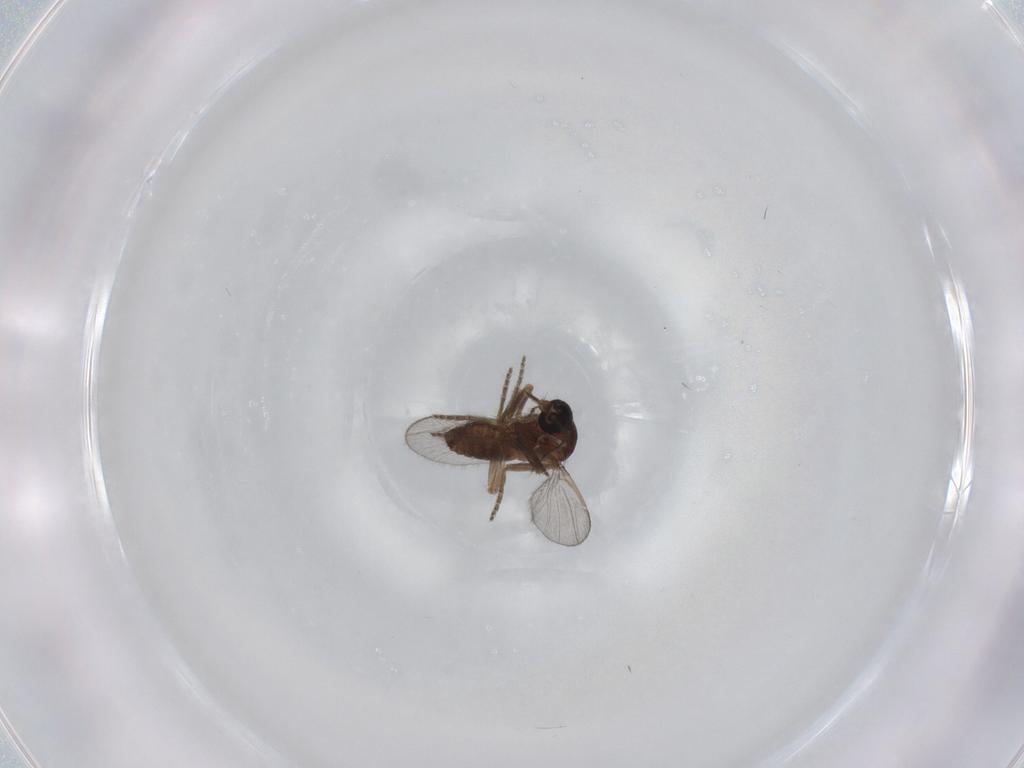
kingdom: Animalia
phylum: Arthropoda
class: Insecta
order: Diptera
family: Ceratopogonidae
